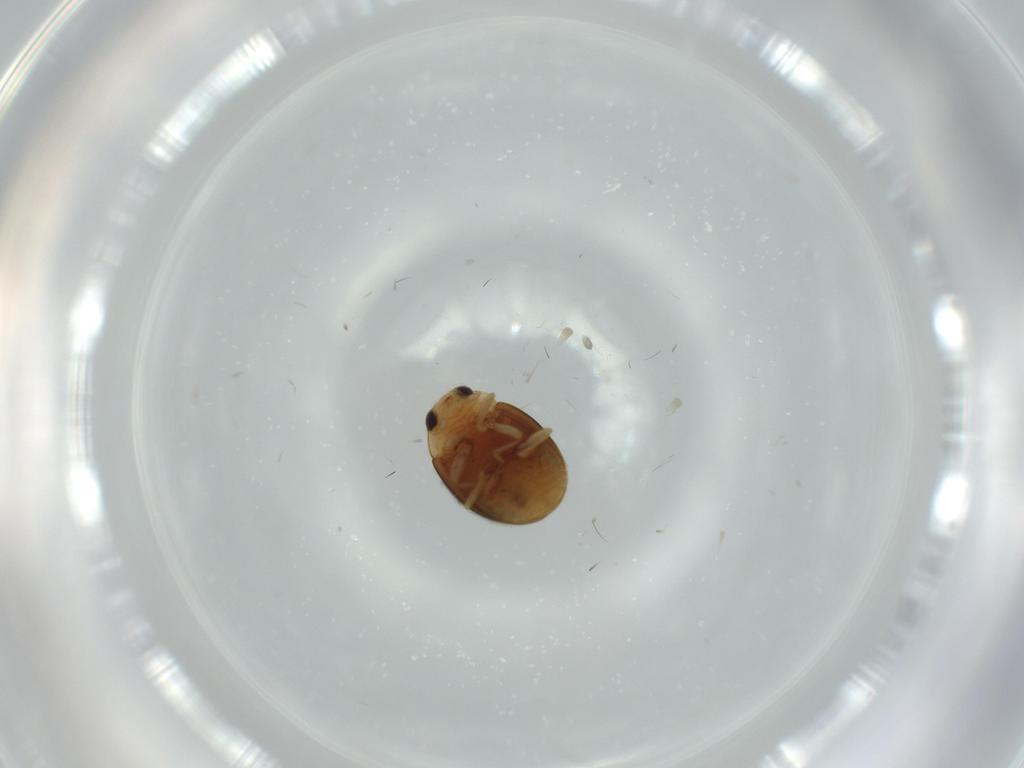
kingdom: Animalia
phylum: Arthropoda
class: Insecta
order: Coleoptera
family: Coccinellidae
